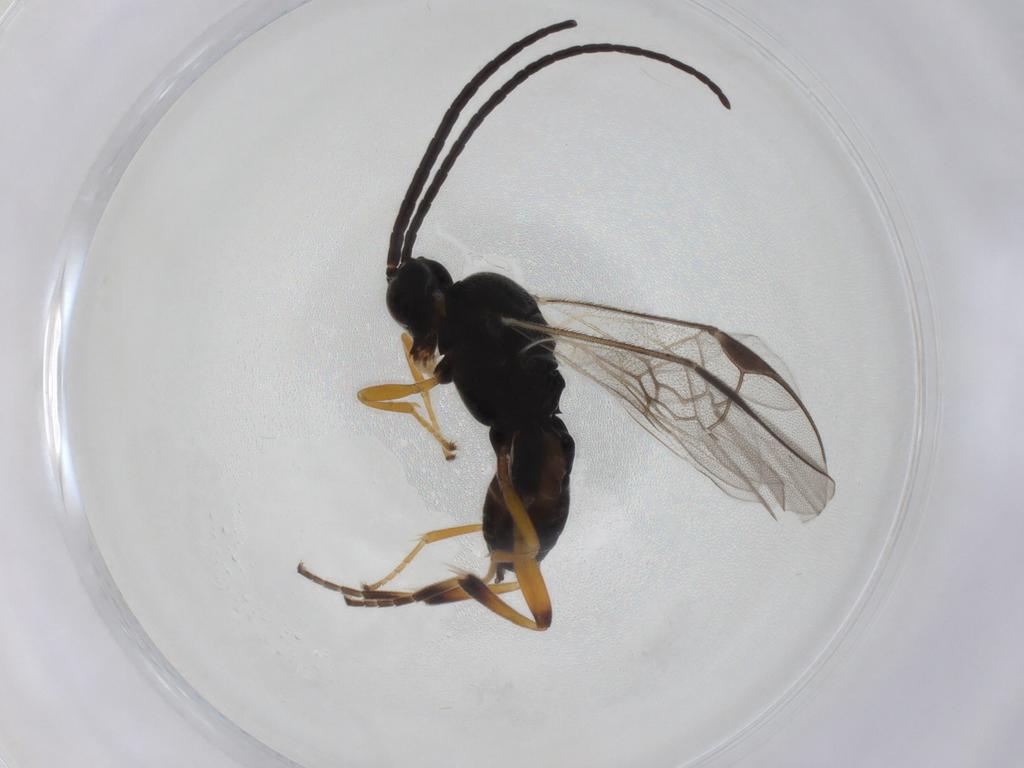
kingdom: Animalia
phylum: Arthropoda
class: Insecta
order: Hymenoptera
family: Braconidae
